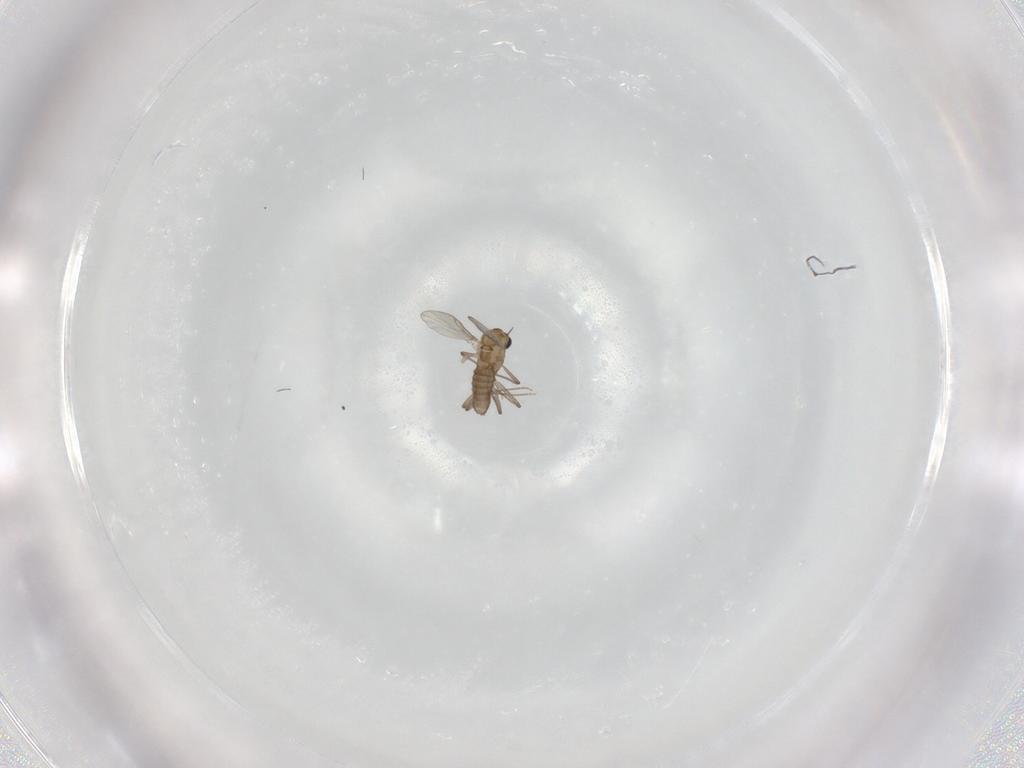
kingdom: Animalia
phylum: Arthropoda
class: Insecta
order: Diptera
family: Chironomidae
